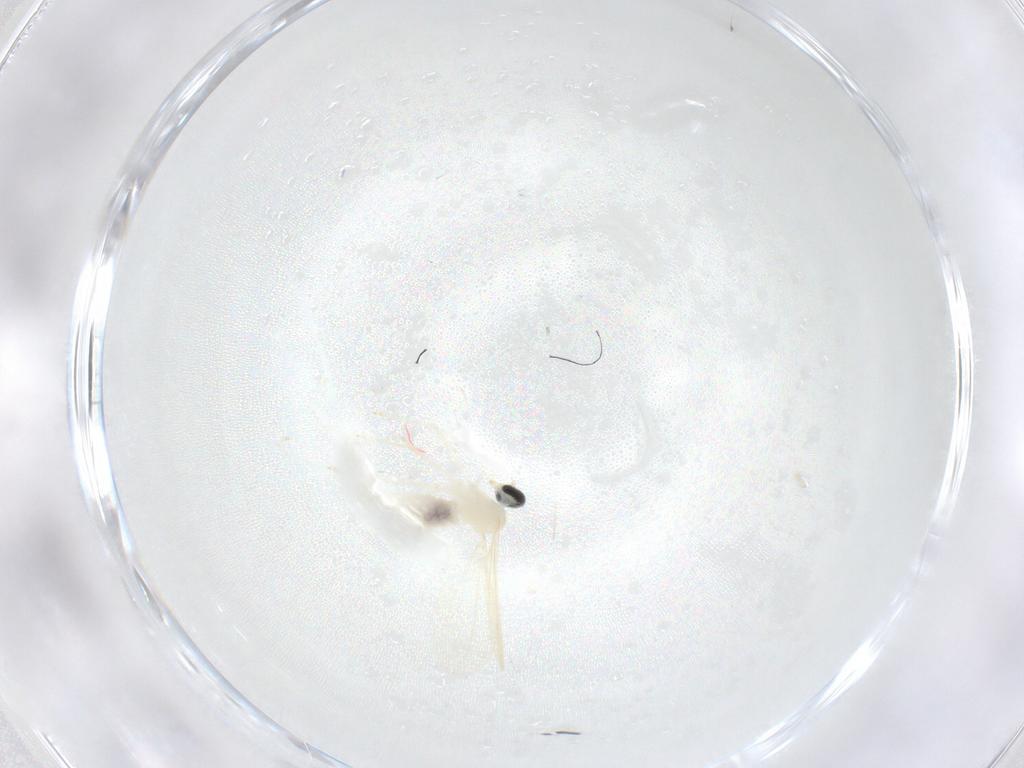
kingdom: Animalia
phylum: Arthropoda
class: Insecta
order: Diptera
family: Cecidomyiidae
